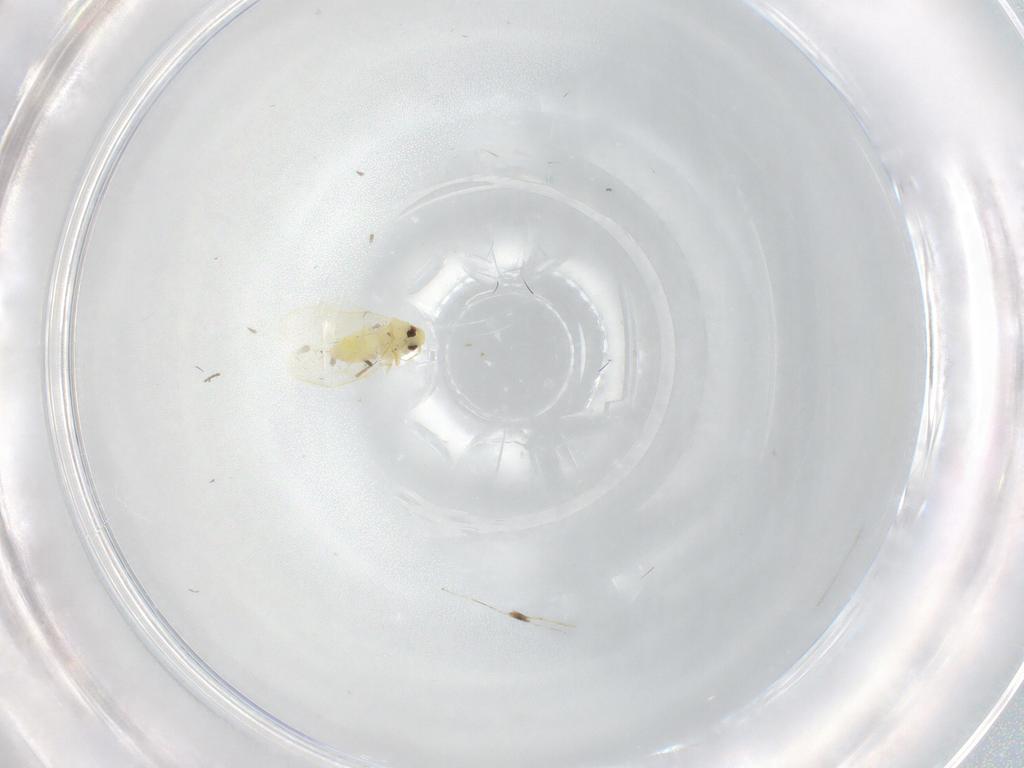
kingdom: Animalia
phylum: Arthropoda
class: Insecta
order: Hemiptera
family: Aleyrodidae
